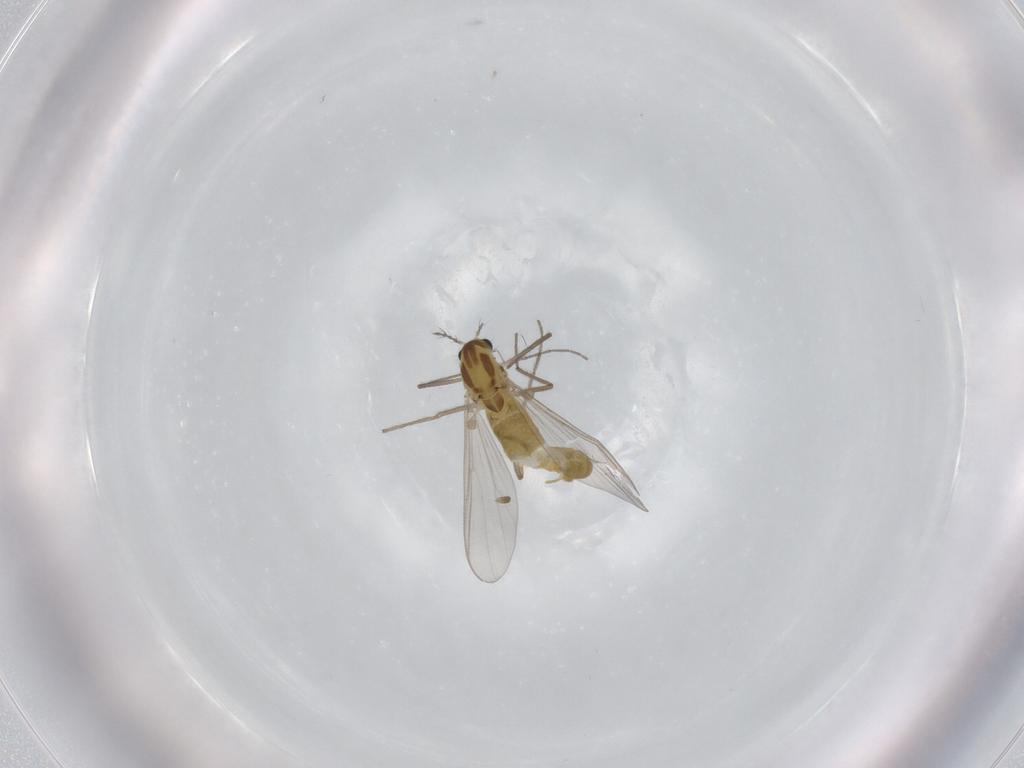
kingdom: Animalia
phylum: Arthropoda
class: Insecta
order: Diptera
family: Chironomidae
